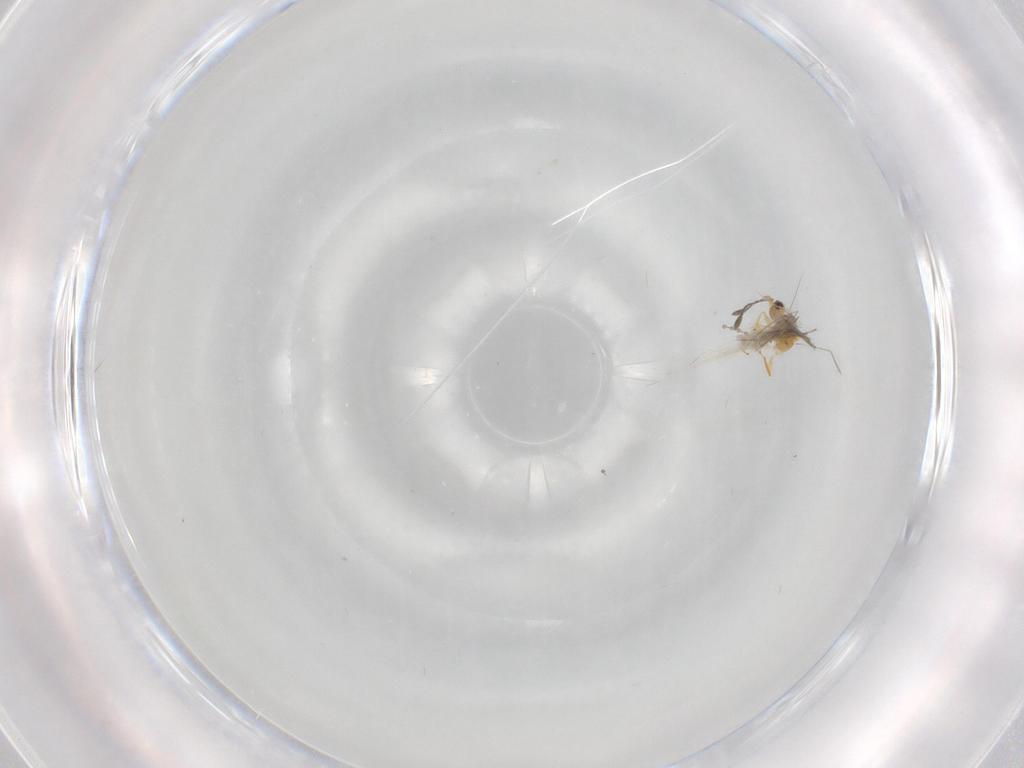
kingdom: Animalia
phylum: Arthropoda
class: Insecta
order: Hymenoptera
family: Mymaridae
